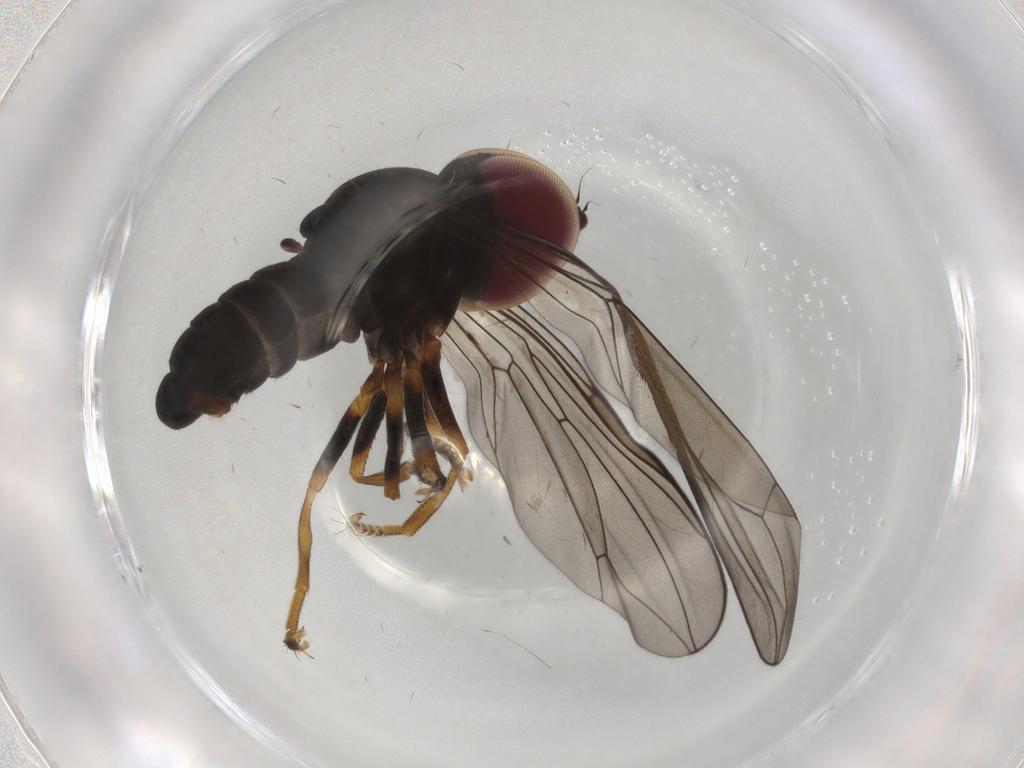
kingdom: Animalia
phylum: Arthropoda
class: Insecta
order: Diptera
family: Pipunculidae
